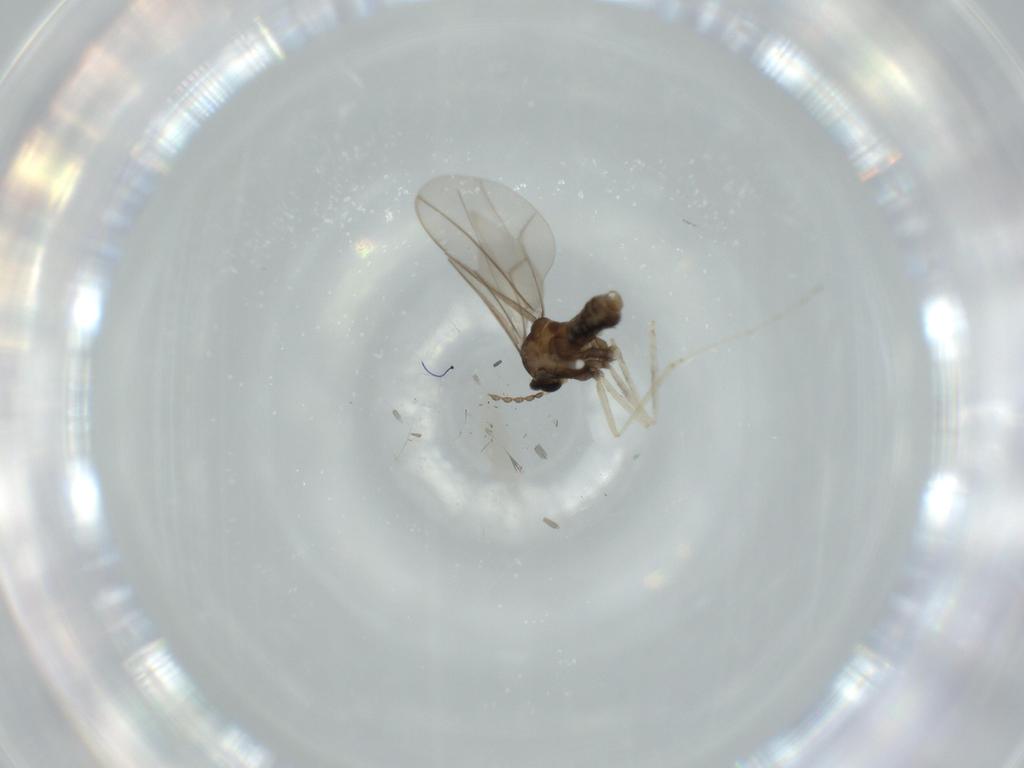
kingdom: Animalia
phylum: Arthropoda
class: Insecta
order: Diptera
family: Cecidomyiidae
